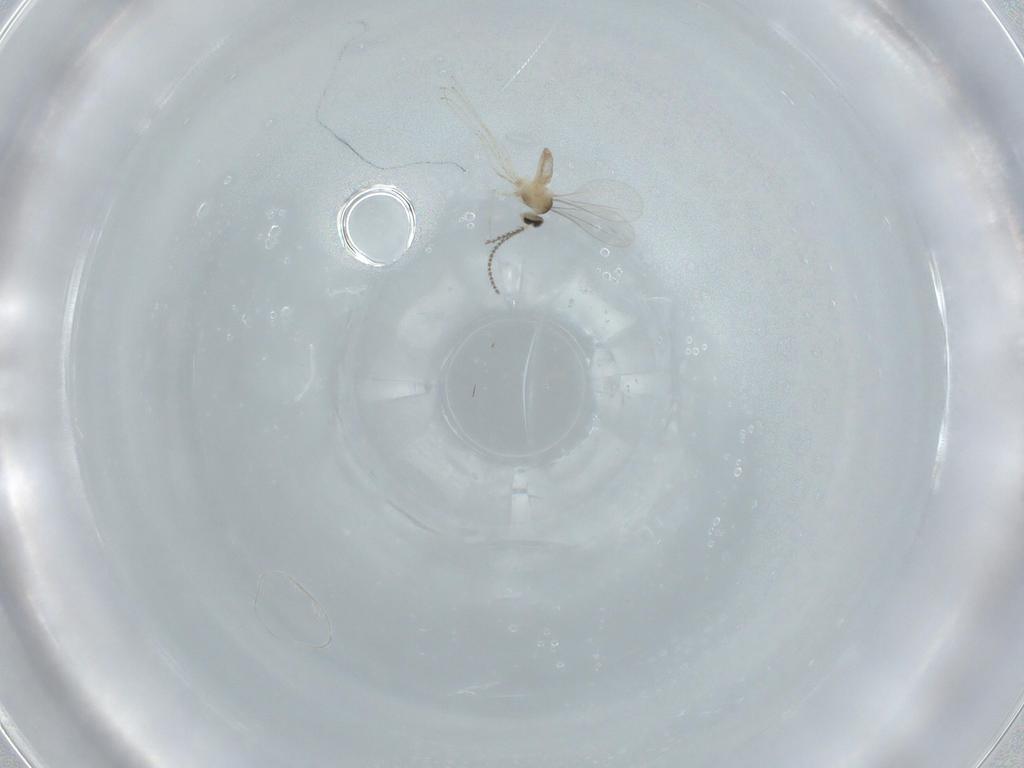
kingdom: Animalia
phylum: Arthropoda
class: Insecta
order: Diptera
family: Cecidomyiidae
